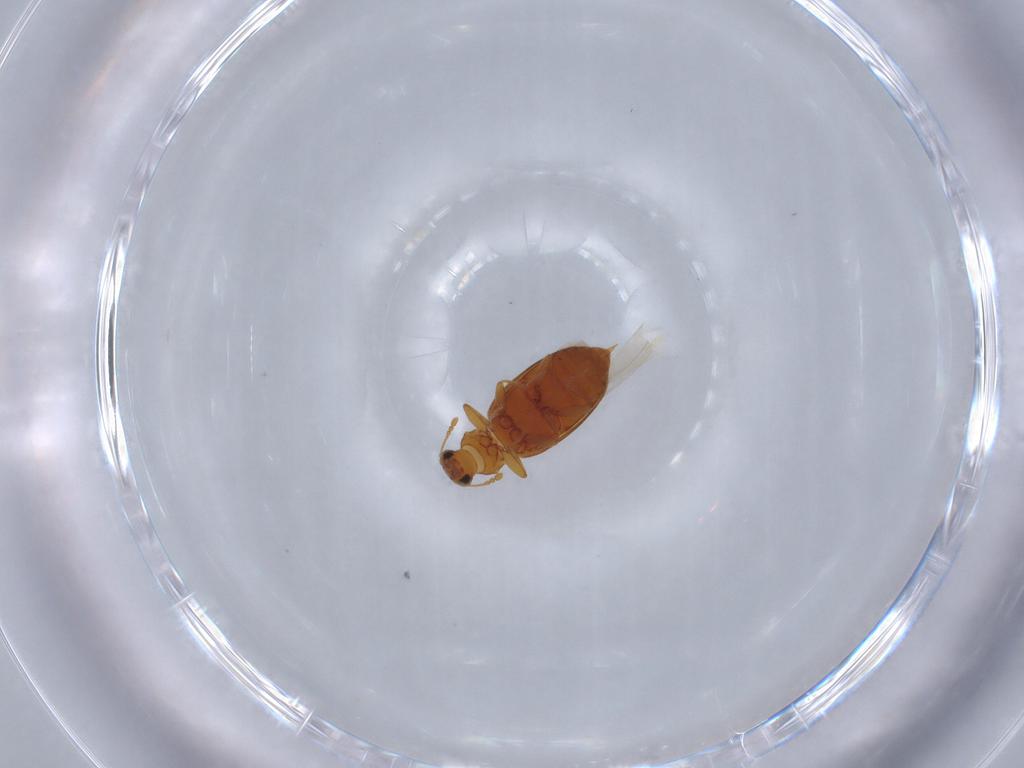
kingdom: Animalia
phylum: Arthropoda
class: Insecta
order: Coleoptera
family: Latridiidae
